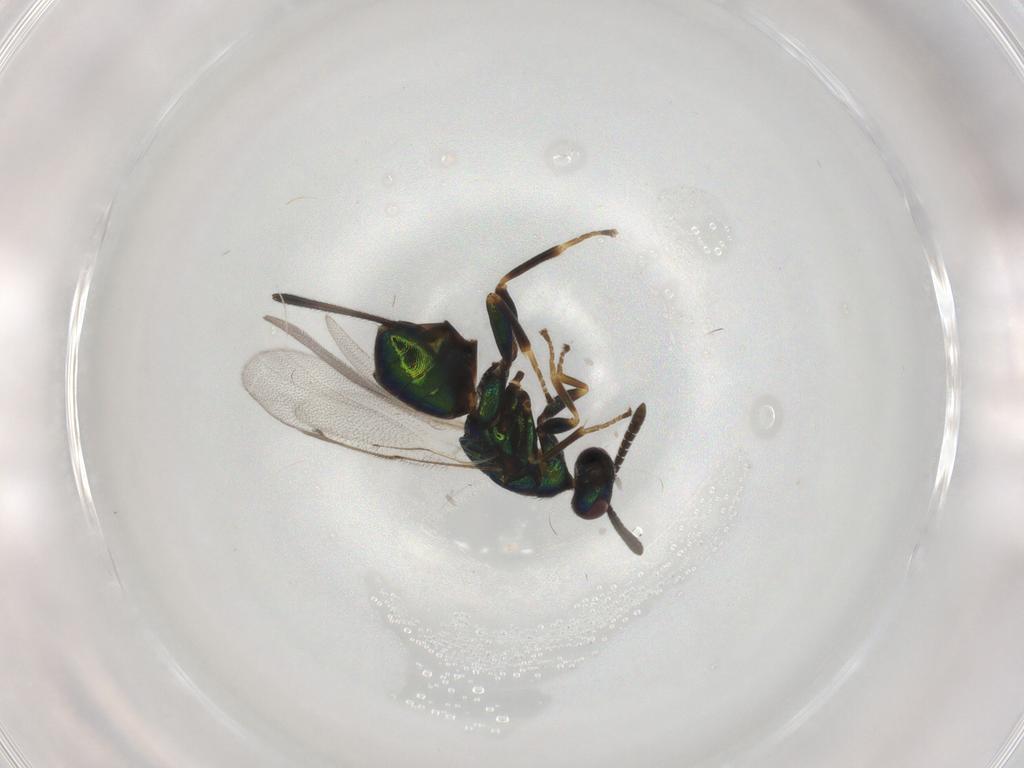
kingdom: Animalia
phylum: Arthropoda
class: Insecta
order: Hymenoptera
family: Torymidae
